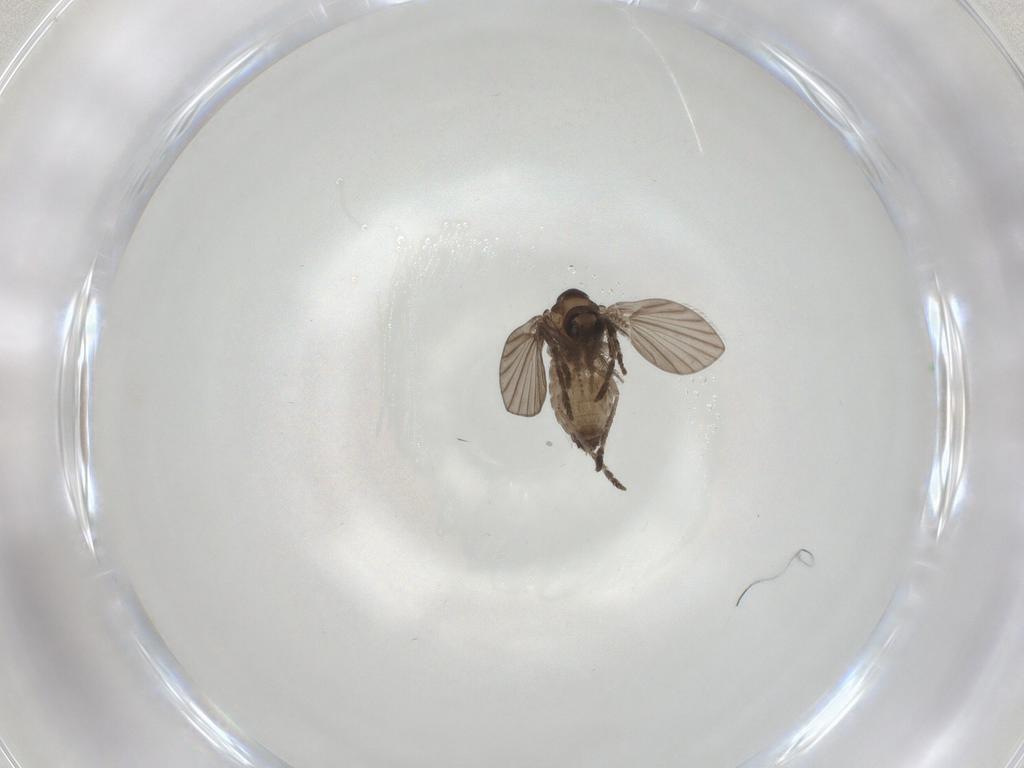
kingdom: Animalia
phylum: Arthropoda
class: Insecta
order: Diptera
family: Psychodidae
